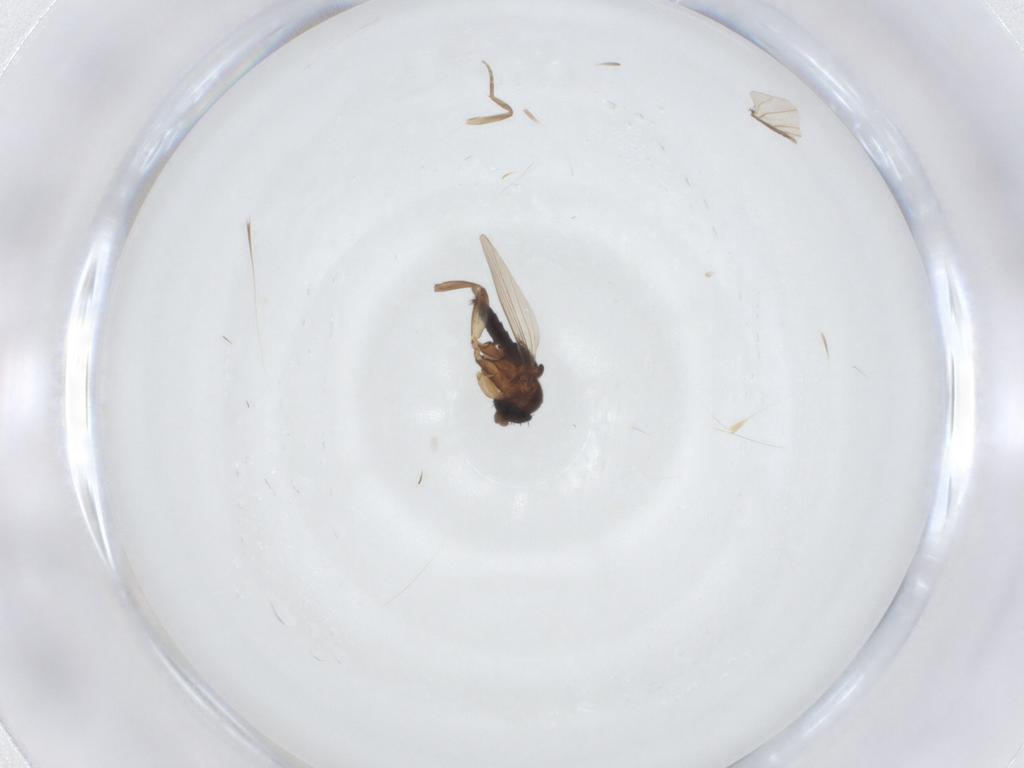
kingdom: Animalia
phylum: Arthropoda
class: Insecta
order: Diptera
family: Phoridae
